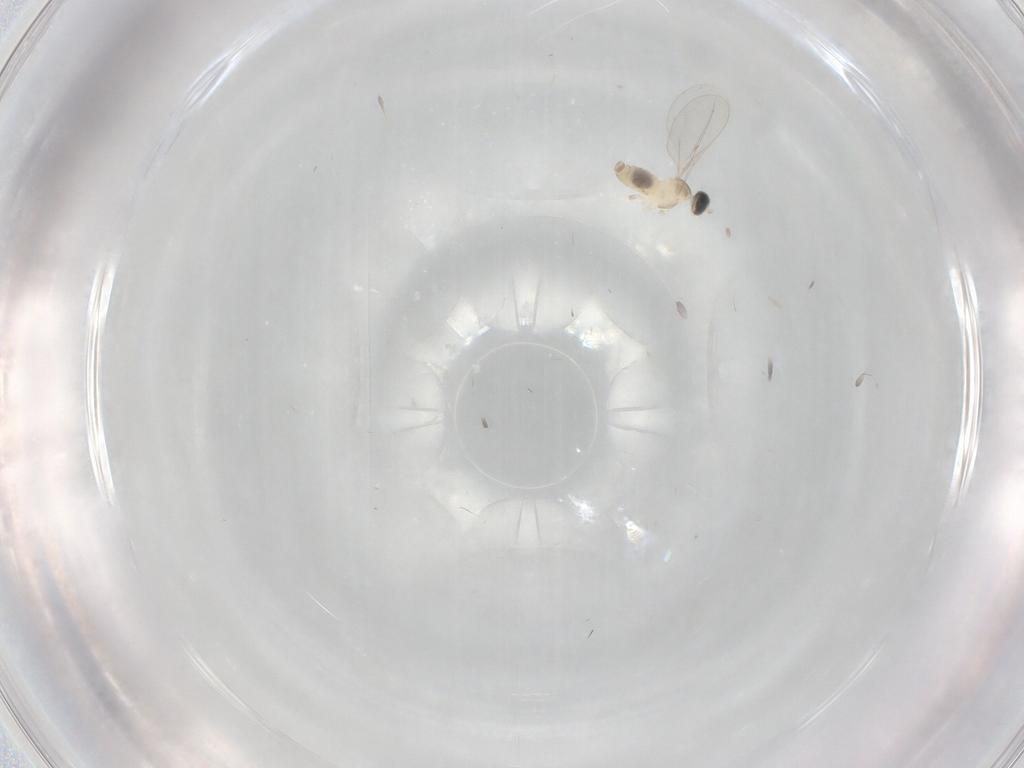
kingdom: Animalia
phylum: Arthropoda
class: Insecta
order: Diptera
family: Cecidomyiidae
